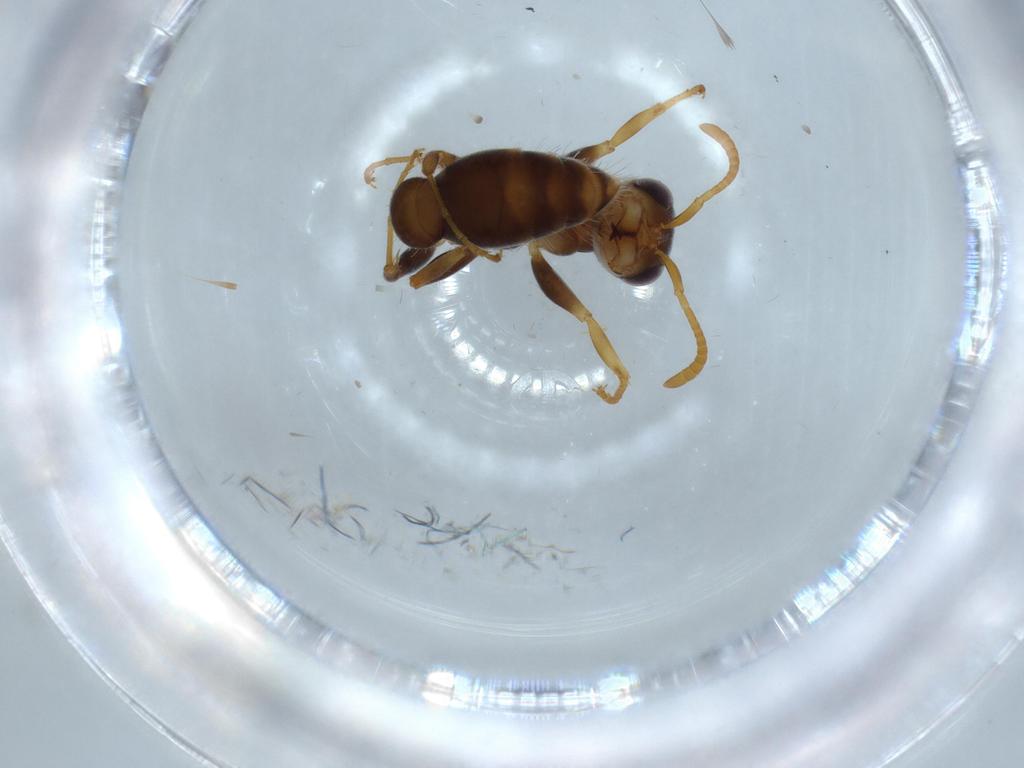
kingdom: Animalia
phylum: Arthropoda
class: Insecta
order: Hymenoptera
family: Formicidae
